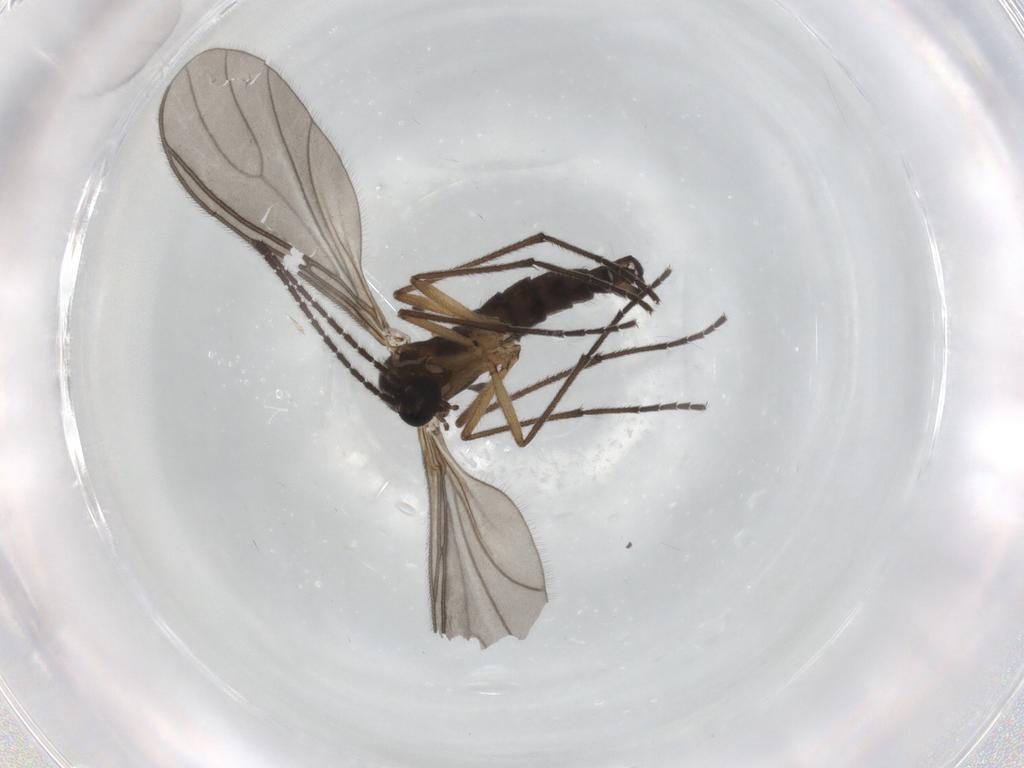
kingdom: Animalia
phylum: Arthropoda
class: Insecta
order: Diptera
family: Sciaridae
